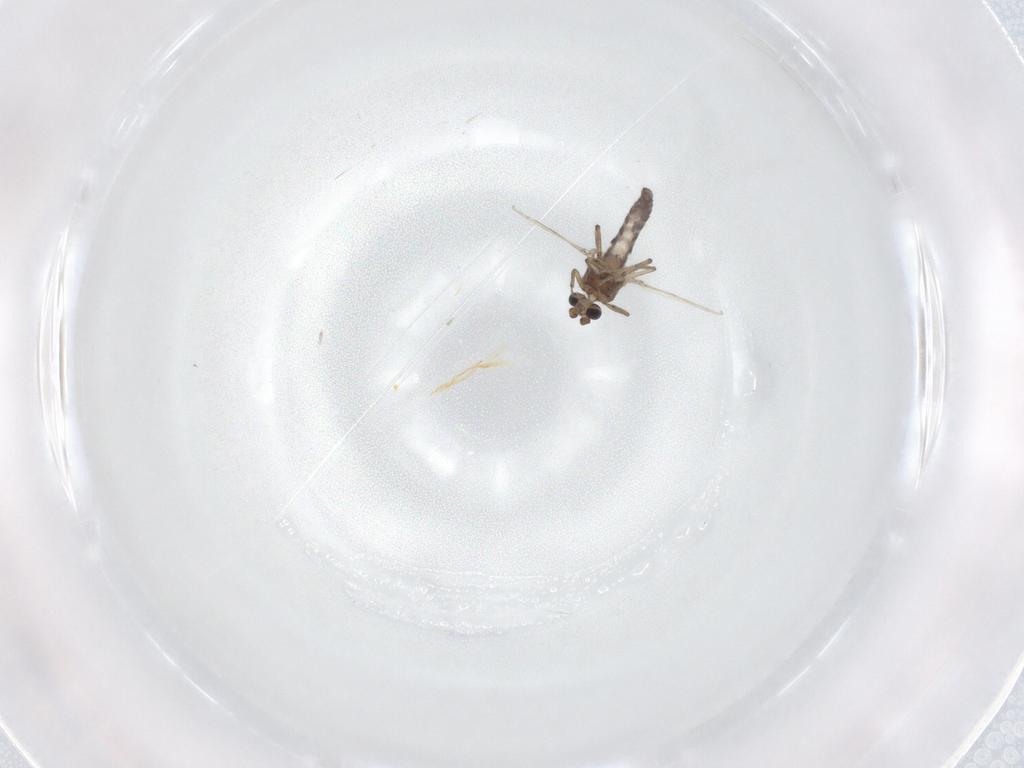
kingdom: Animalia
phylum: Arthropoda
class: Insecta
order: Diptera
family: Ceratopogonidae
